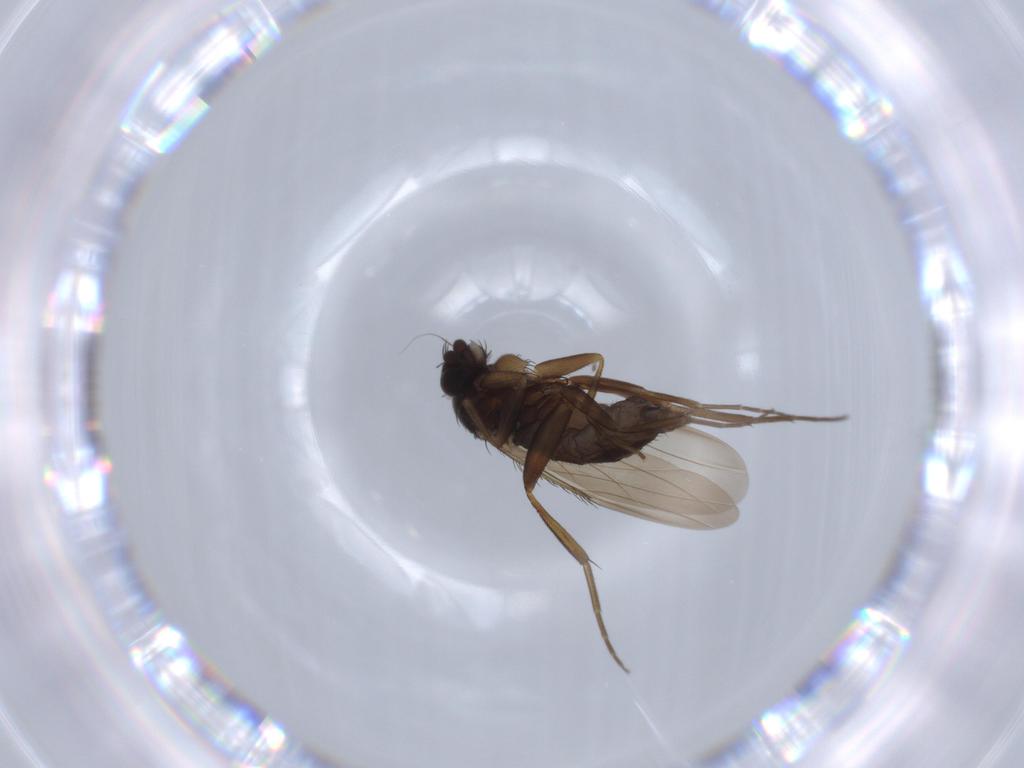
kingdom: Animalia
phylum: Arthropoda
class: Insecta
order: Diptera
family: Phoridae
